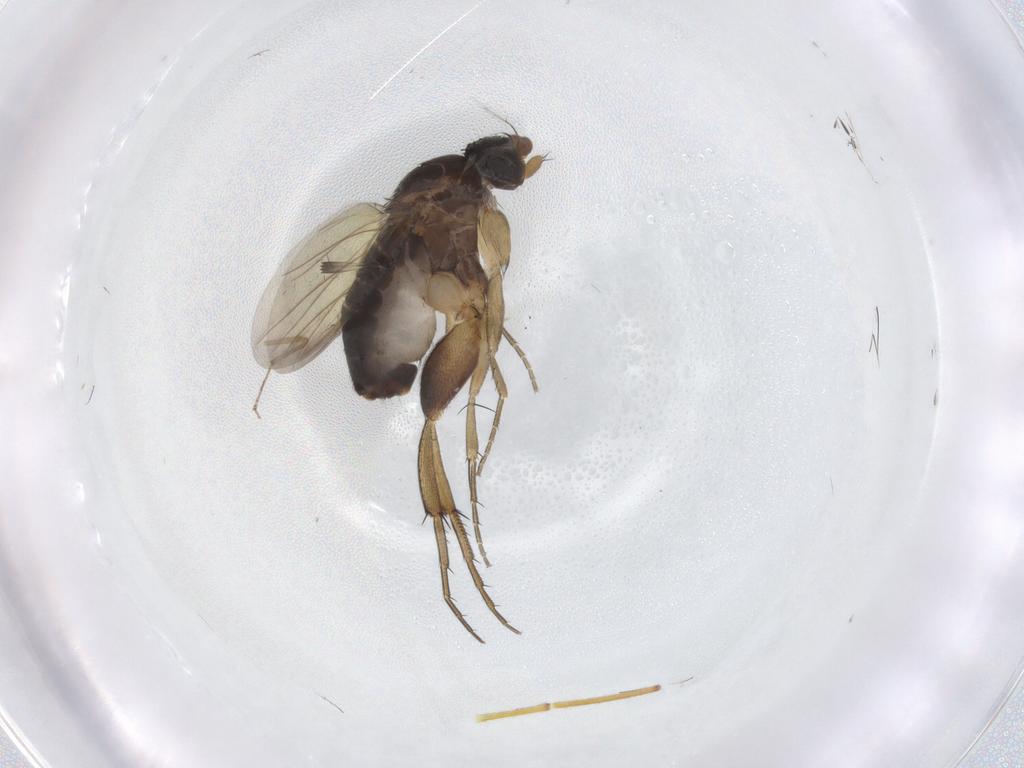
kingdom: Animalia
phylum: Arthropoda
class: Insecta
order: Diptera
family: Phoridae
